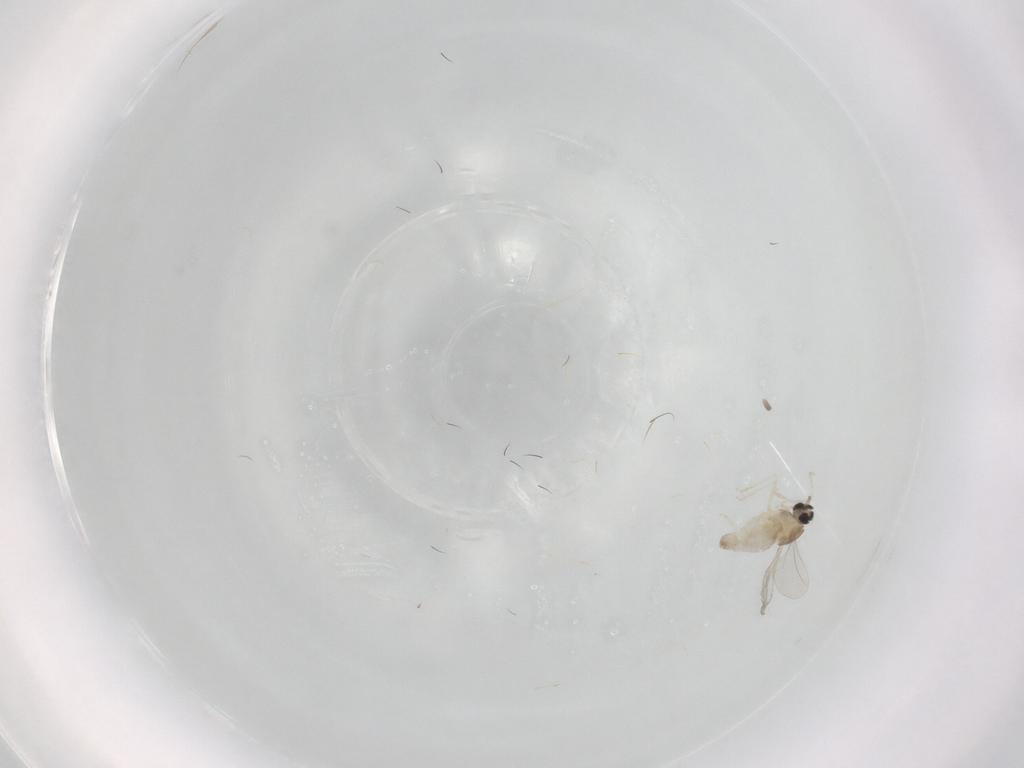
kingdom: Animalia
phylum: Arthropoda
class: Insecta
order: Diptera
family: Cecidomyiidae
